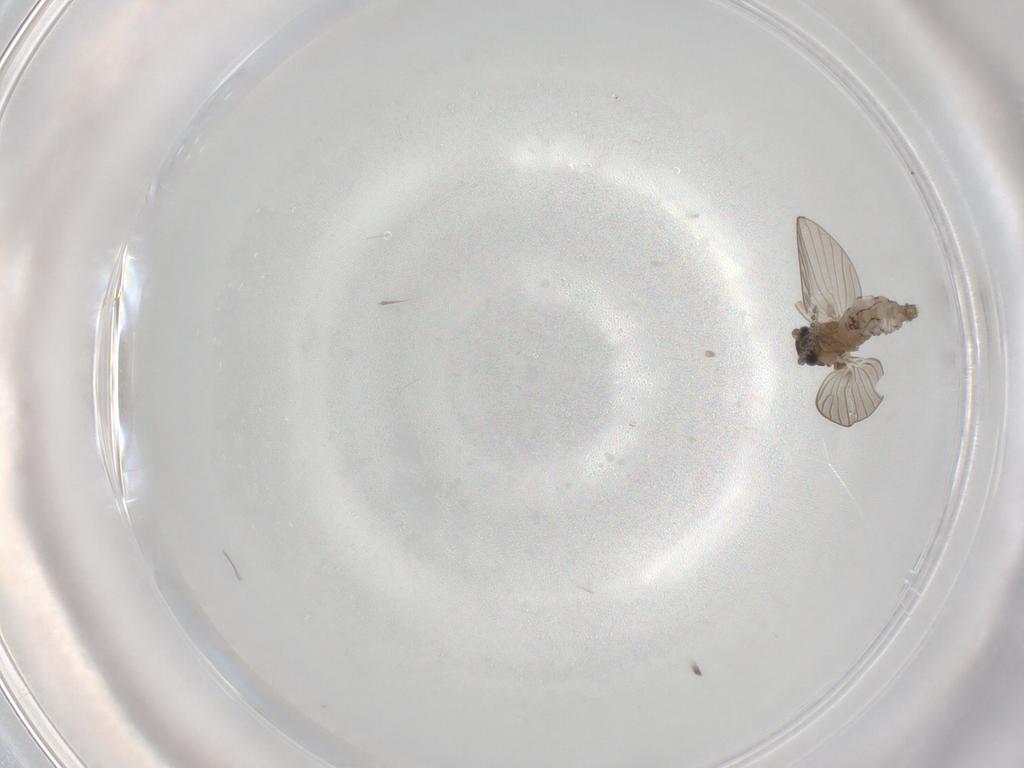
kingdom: Animalia
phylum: Arthropoda
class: Insecta
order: Diptera
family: Psychodidae
